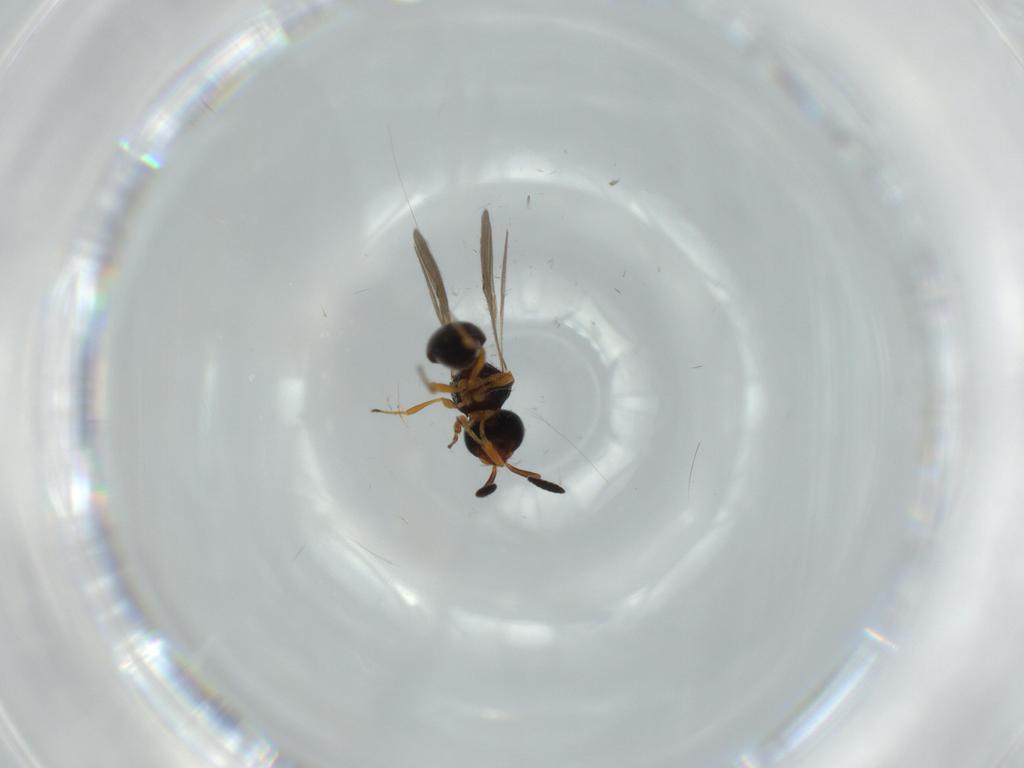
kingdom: Animalia
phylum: Arthropoda
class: Insecta
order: Hymenoptera
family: Scelionidae
